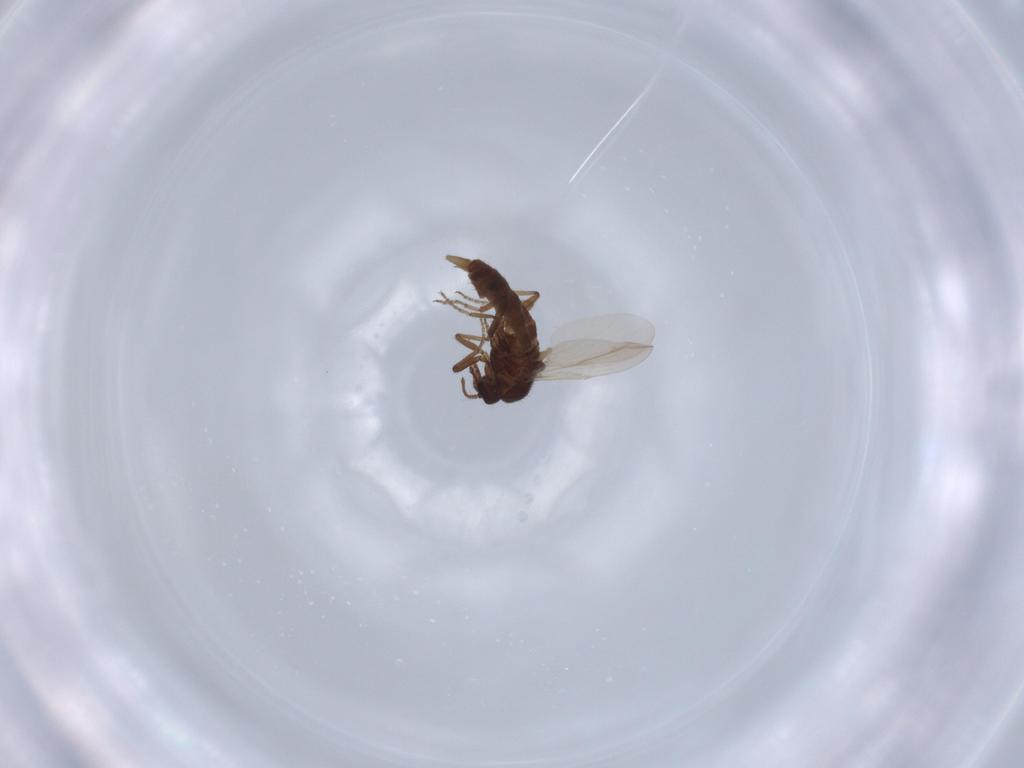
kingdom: Animalia
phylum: Arthropoda
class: Insecta
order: Diptera
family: Ceratopogonidae
